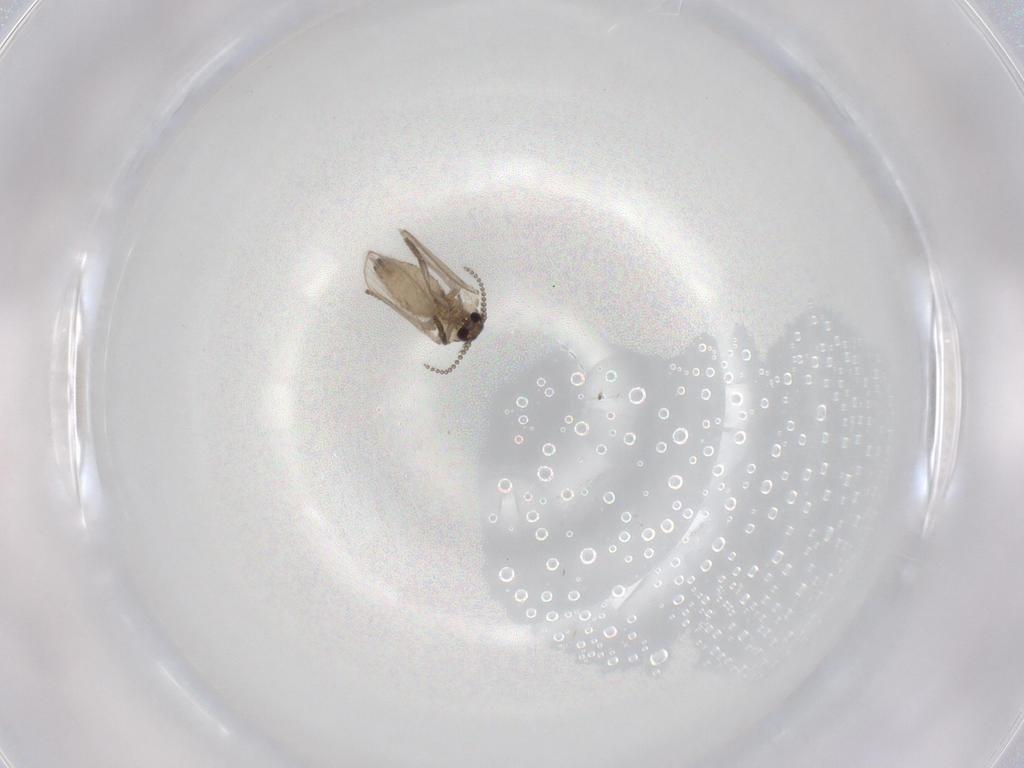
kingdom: Animalia
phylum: Arthropoda
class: Insecta
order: Diptera
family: Psychodidae
